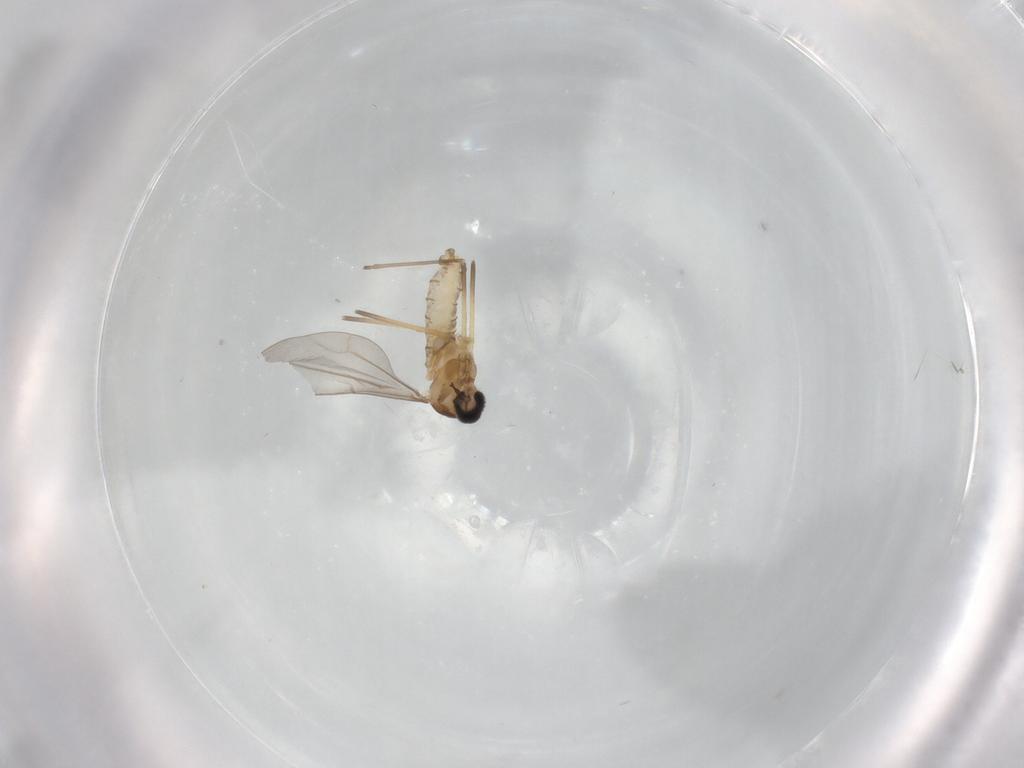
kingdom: Animalia
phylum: Arthropoda
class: Insecta
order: Diptera
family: Cecidomyiidae
